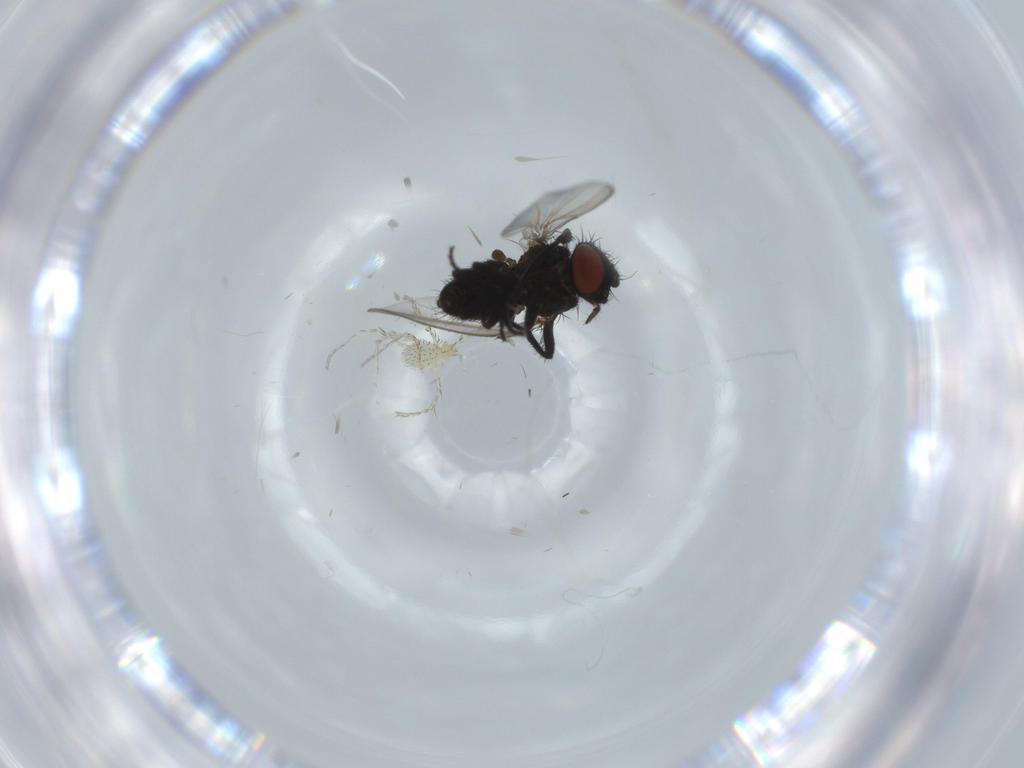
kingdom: Animalia
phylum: Arthropoda
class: Insecta
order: Diptera
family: Milichiidae
